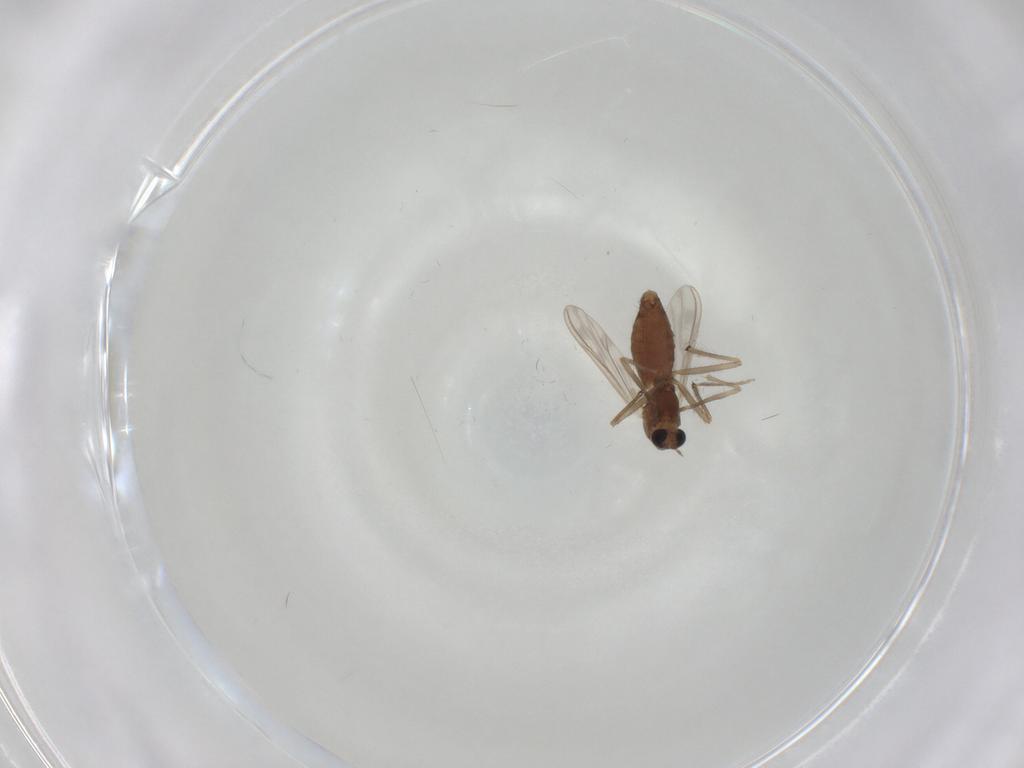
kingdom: Animalia
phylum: Arthropoda
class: Insecta
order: Diptera
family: Chironomidae
